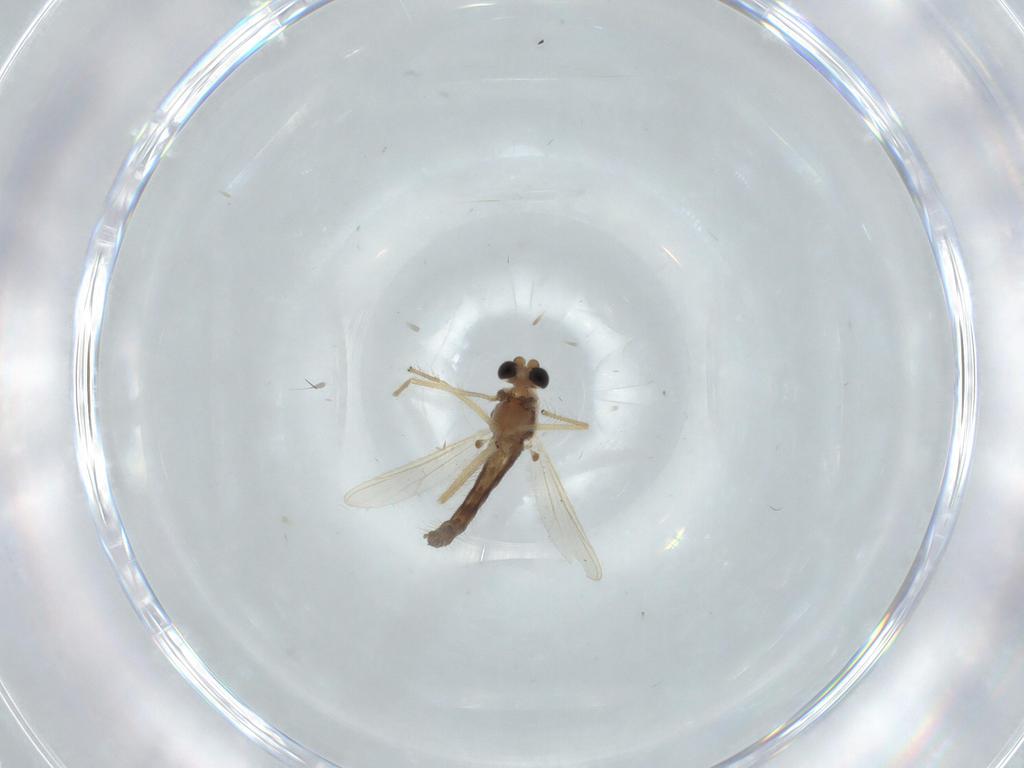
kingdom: Animalia
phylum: Arthropoda
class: Insecta
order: Diptera
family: Chironomidae
